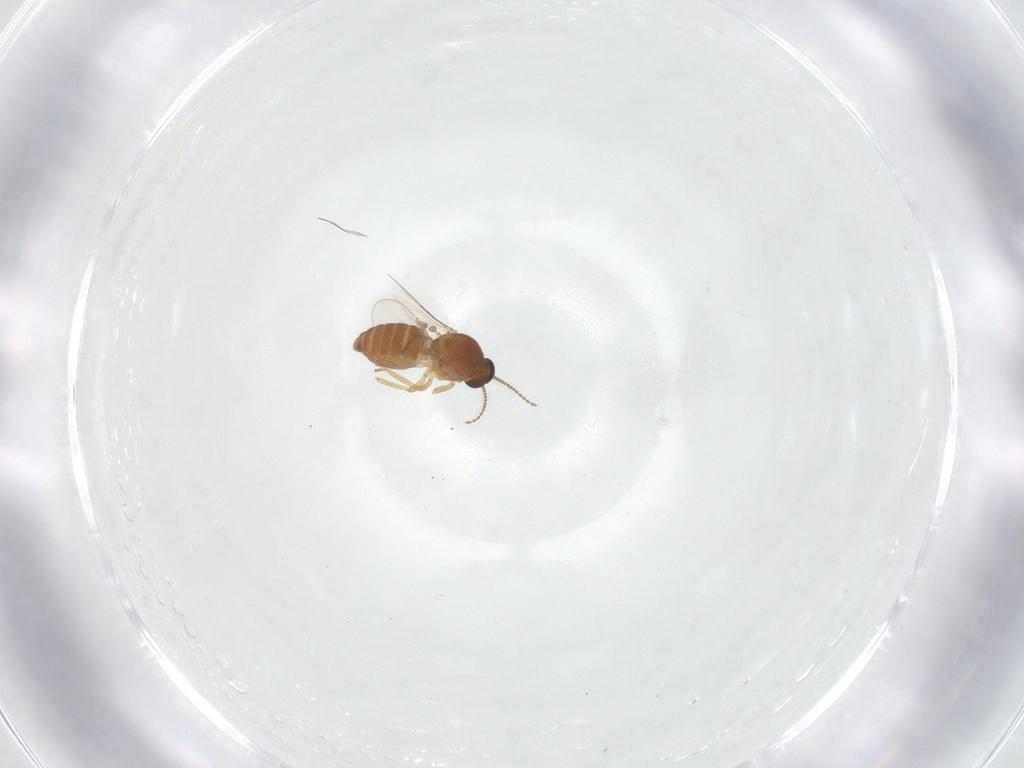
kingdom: Animalia
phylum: Arthropoda
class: Insecta
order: Diptera
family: Ceratopogonidae
